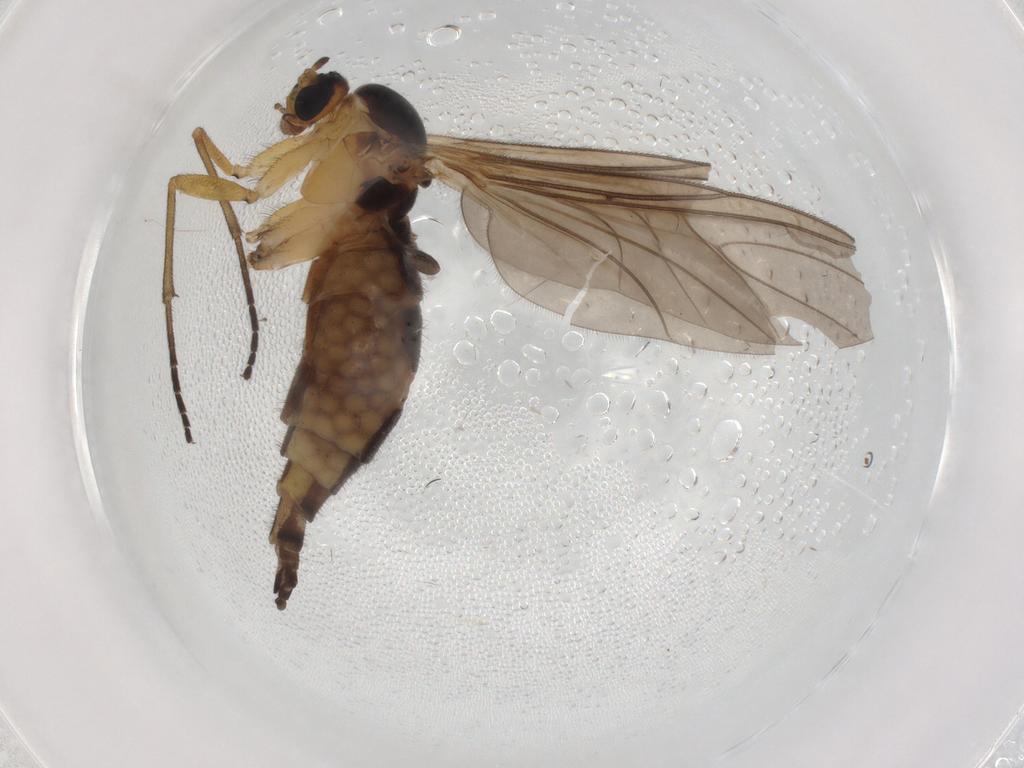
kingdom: Animalia
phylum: Arthropoda
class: Insecta
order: Diptera
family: Sciaridae
